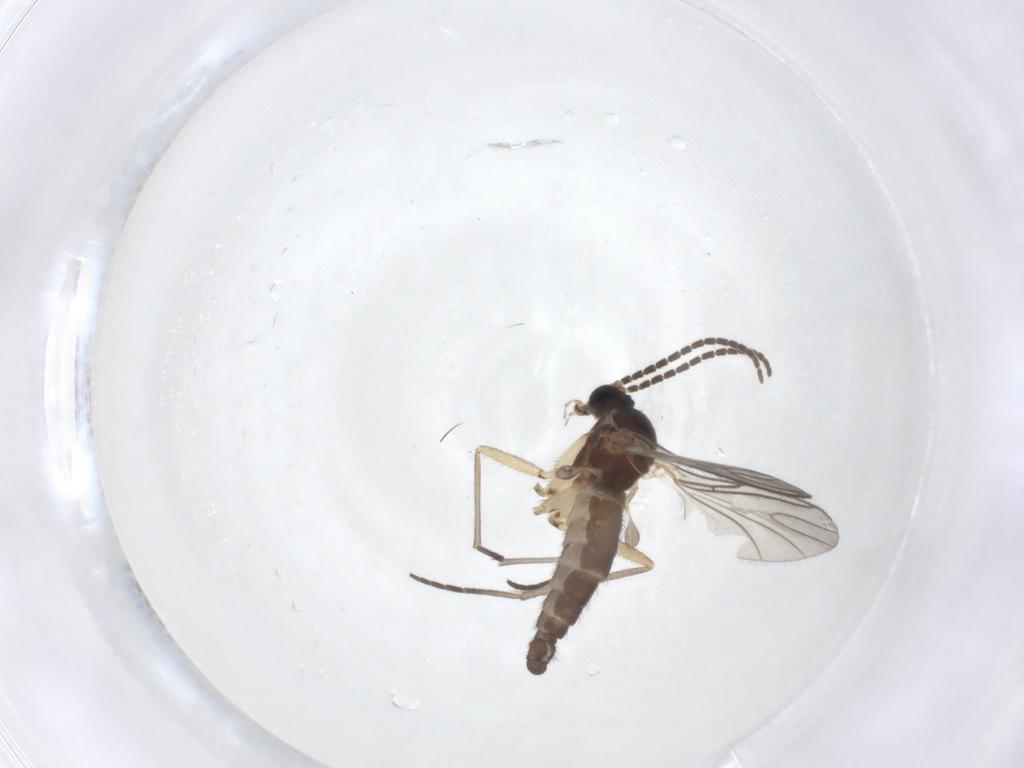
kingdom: Animalia
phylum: Arthropoda
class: Insecta
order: Diptera
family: Sciaridae
